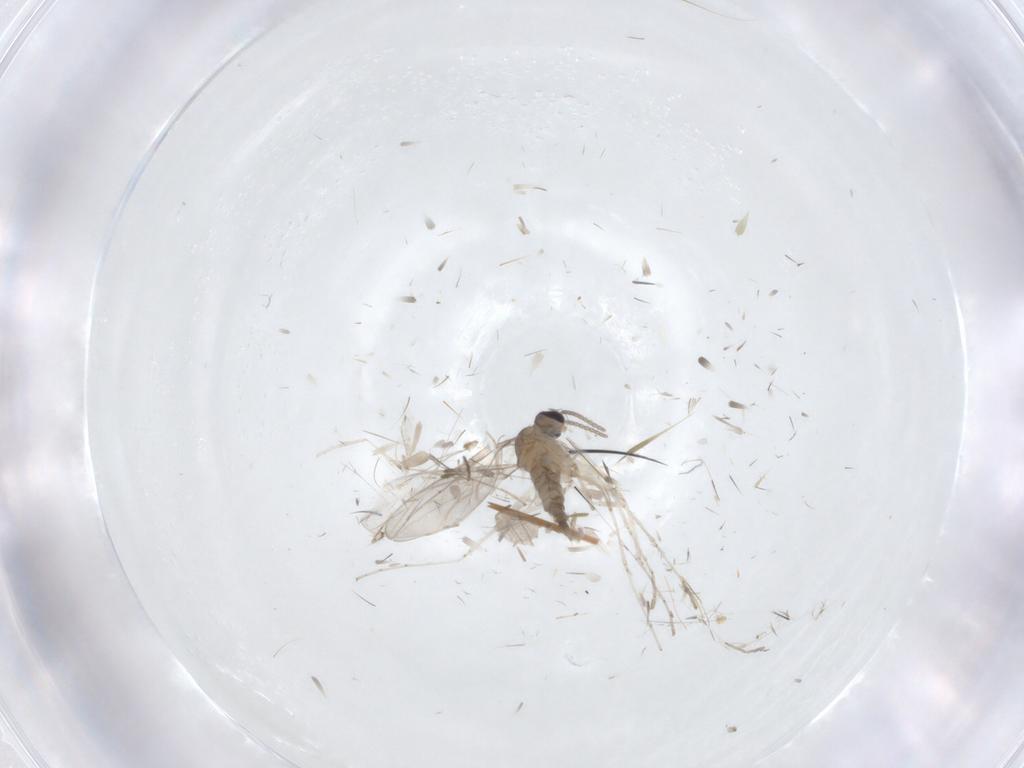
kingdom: Animalia
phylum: Arthropoda
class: Insecta
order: Diptera
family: Cecidomyiidae
